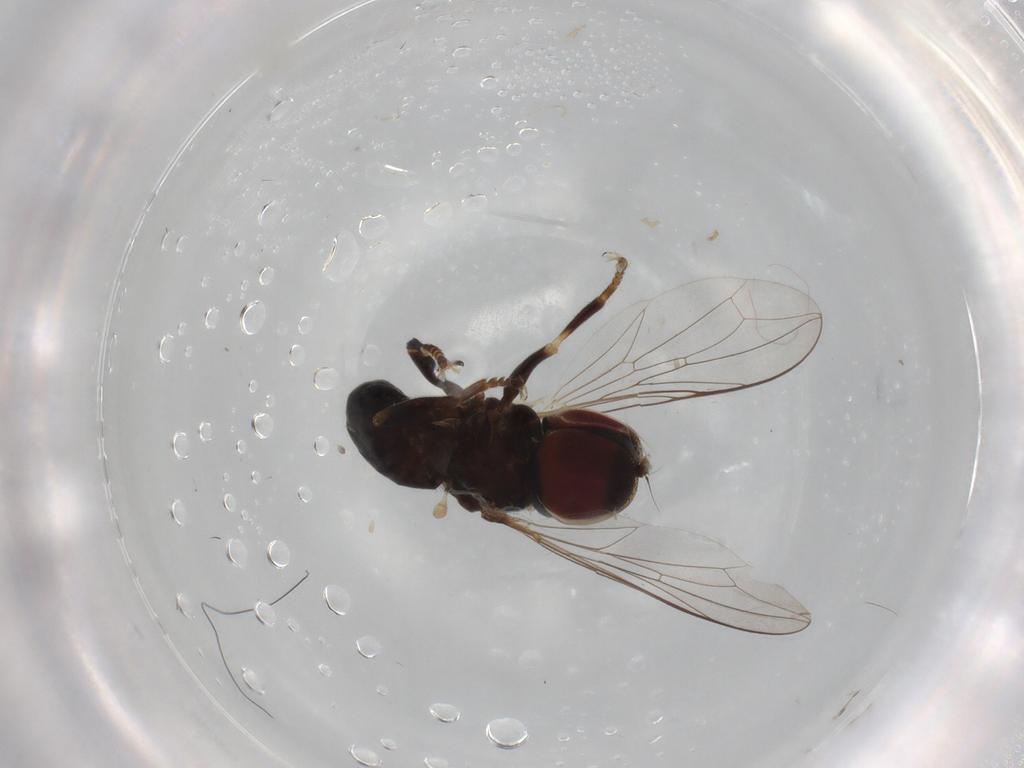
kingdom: Animalia
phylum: Arthropoda
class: Insecta
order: Diptera
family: Pipunculidae
